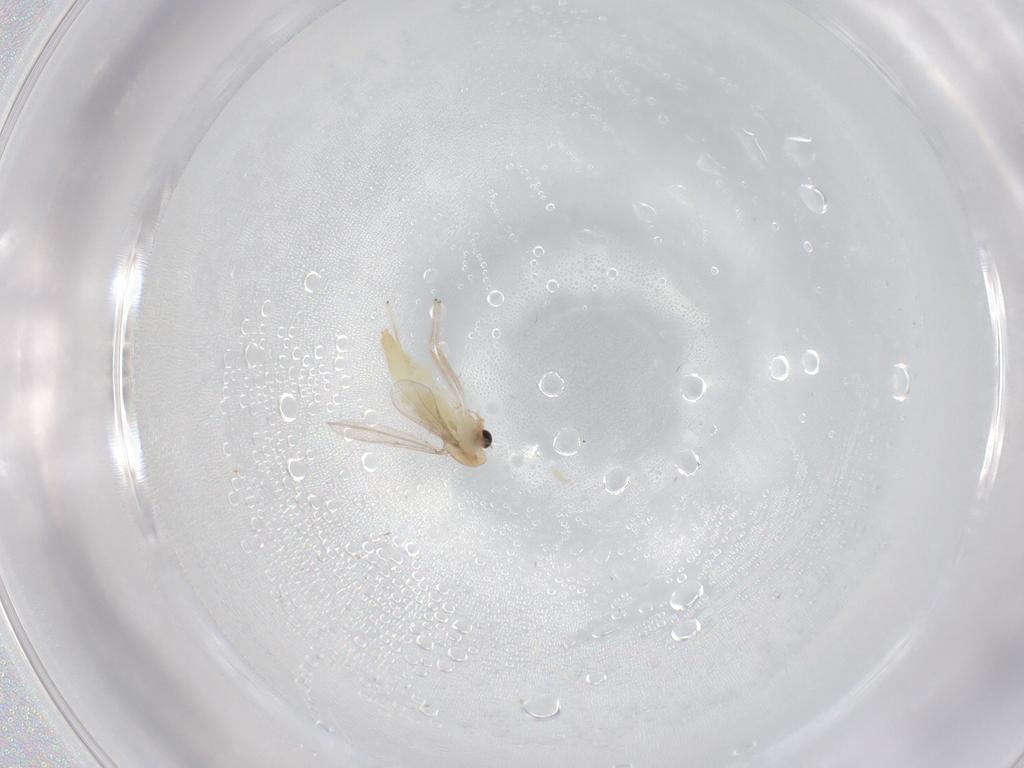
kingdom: Animalia
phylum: Arthropoda
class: Insecta
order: Diptera
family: Chironomidae
